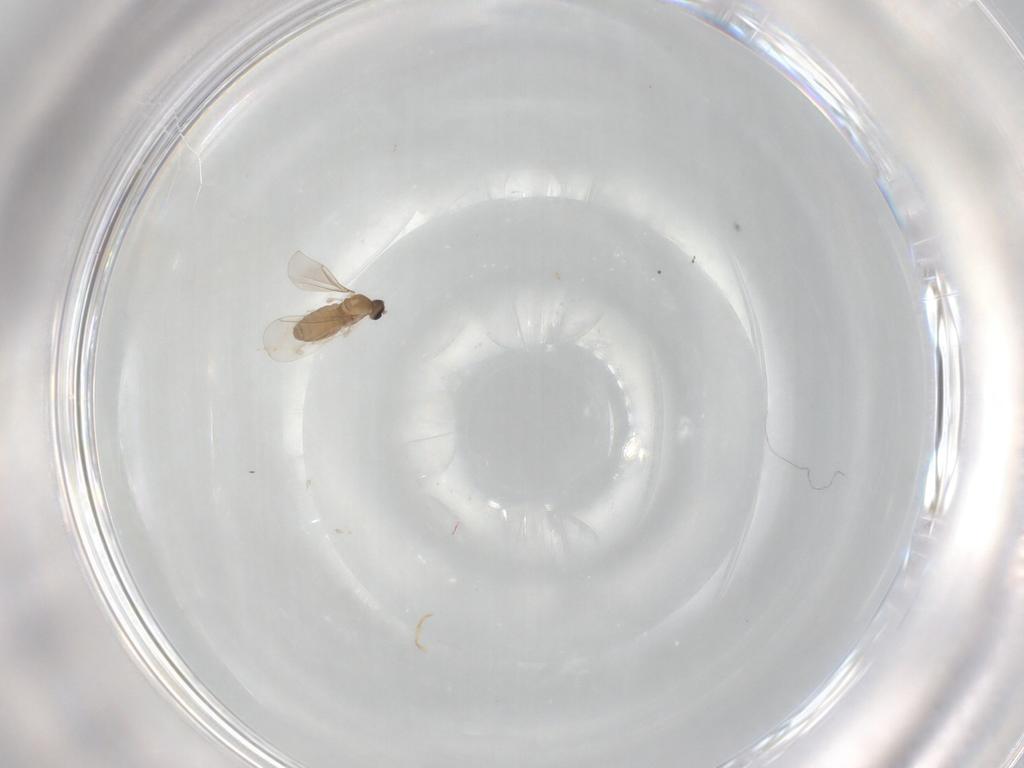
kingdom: Animalia
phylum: Arthropoda
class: Insecta
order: Diptera
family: Cecidomyiidae
